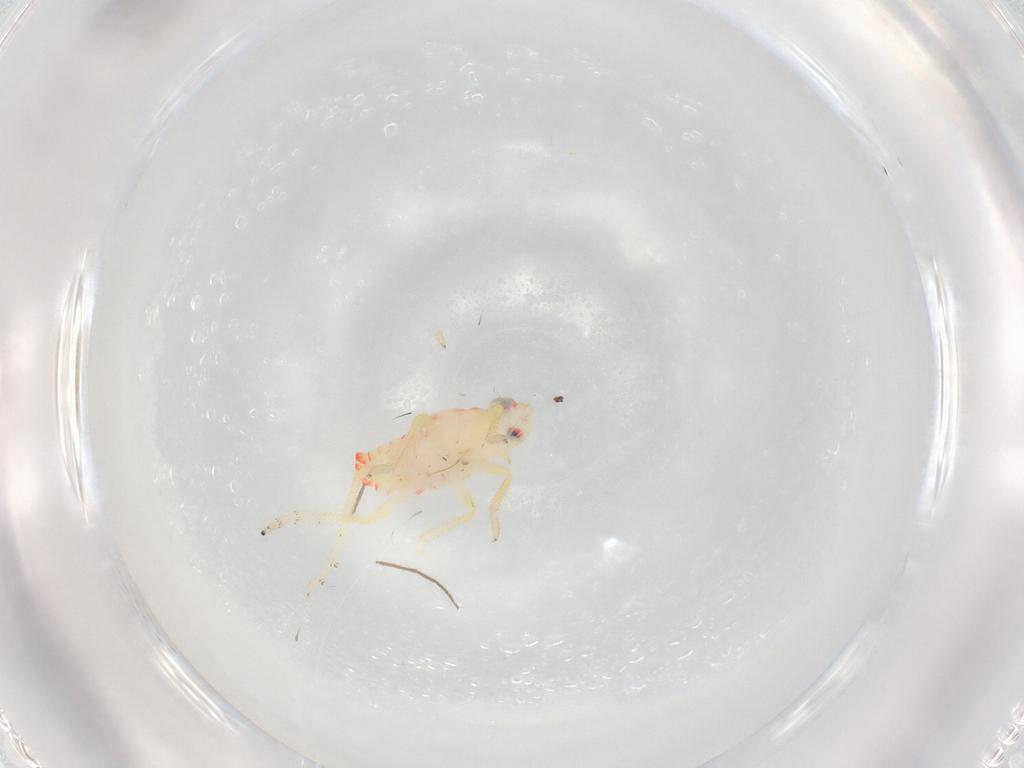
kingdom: Animalia
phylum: Arthropoda
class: Insecta
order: Hemiptera
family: Tropiduchidae
